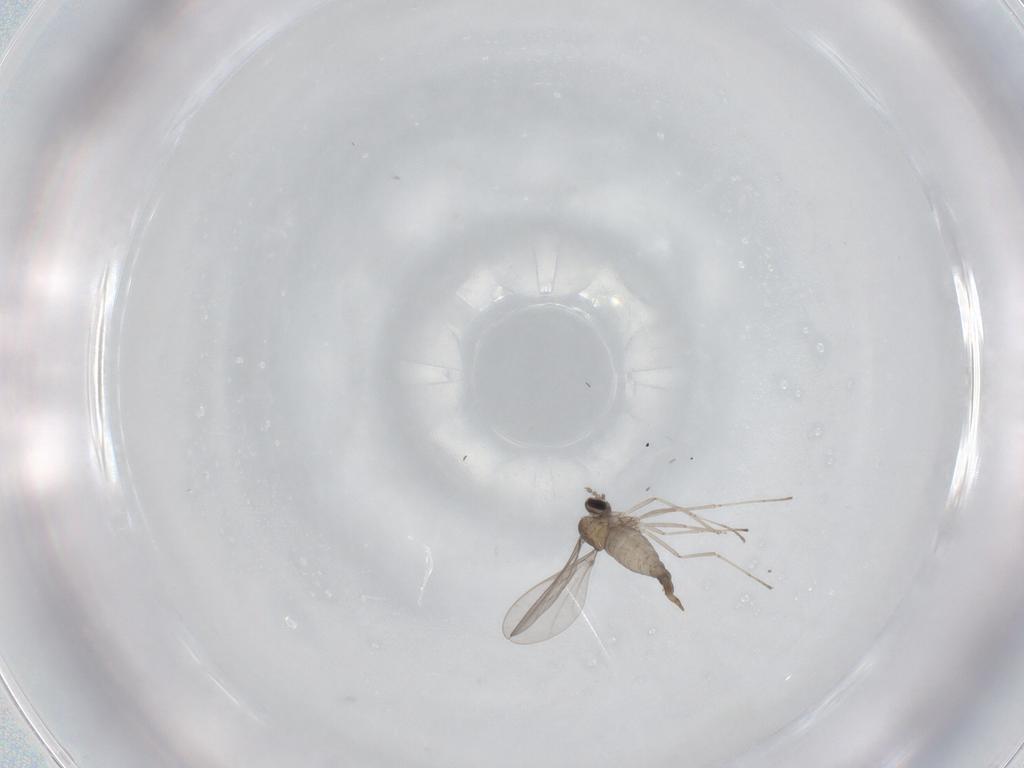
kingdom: Animalia
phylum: Arthropoda
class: Insecta
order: Diptera
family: Cecidomyiidae
